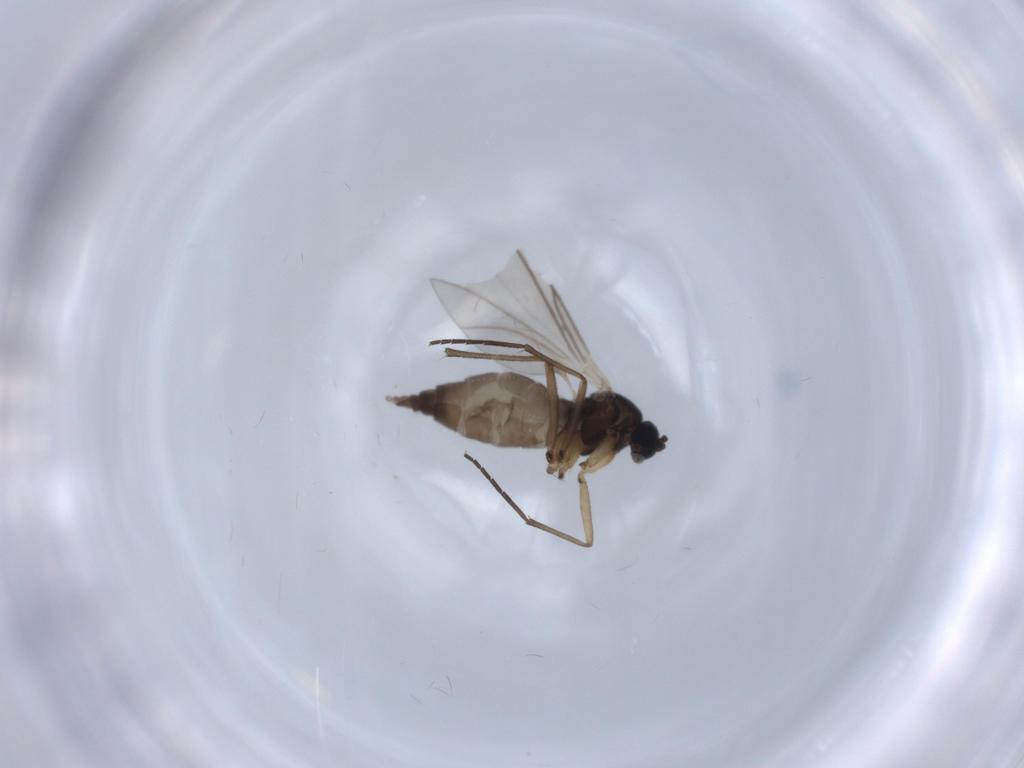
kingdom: Animalia
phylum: Arthropoda
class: Insecta
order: Diptera
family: Sciaridae
